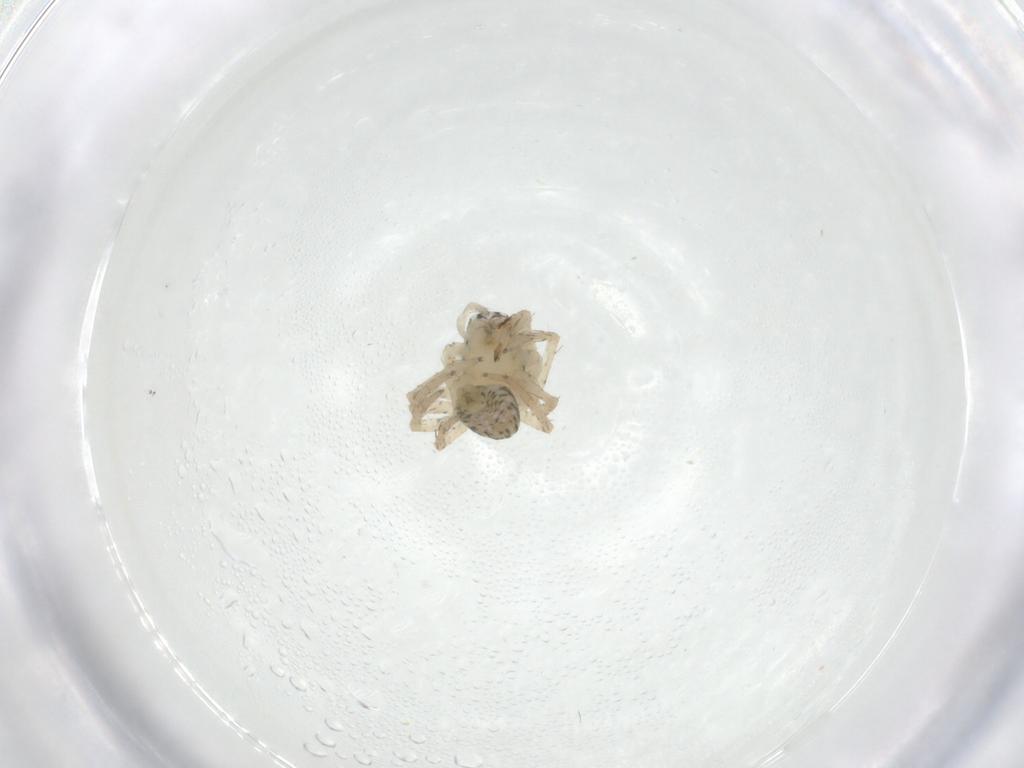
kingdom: Animalia
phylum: Arthropoda
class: Arachnida
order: Araneae
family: Oxyopidae
